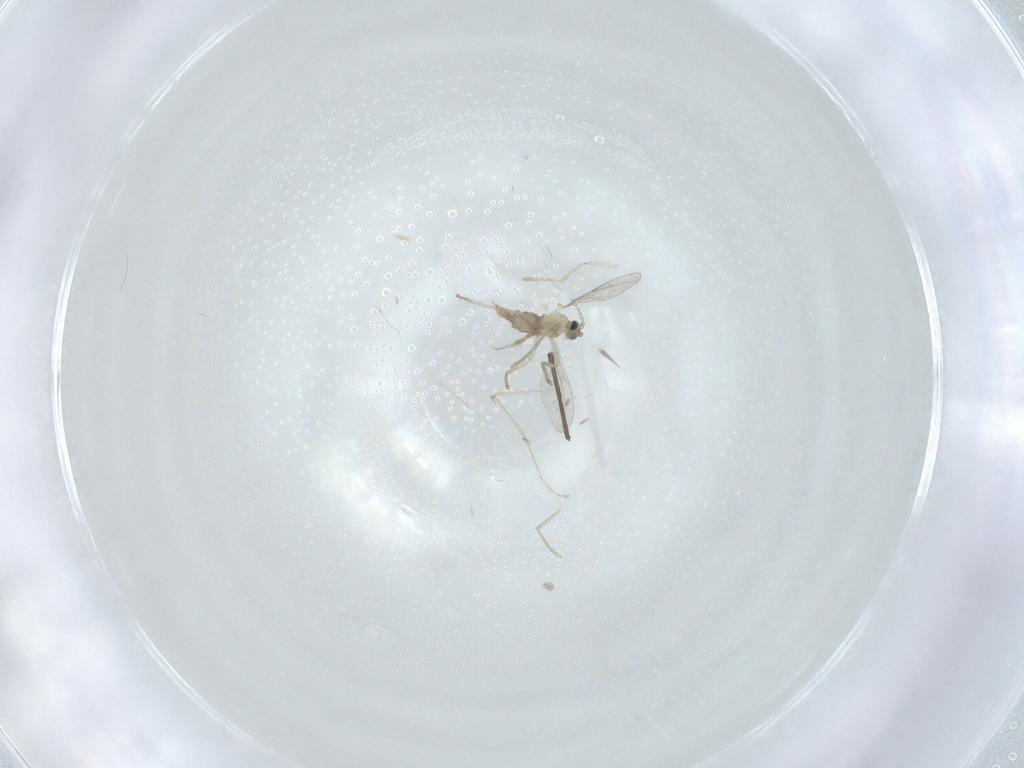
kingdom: Animalia
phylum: Arthropoda
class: Insecta
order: Diptera
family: Cecidomyiidae
